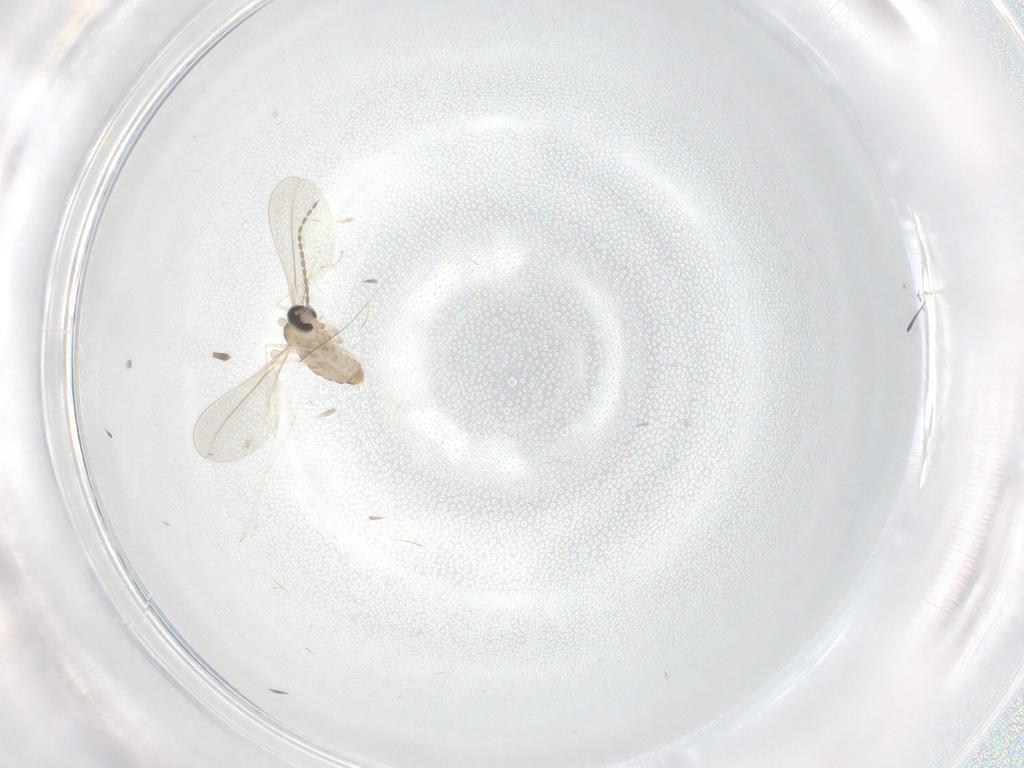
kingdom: Animalia
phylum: Arthropoda
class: Insecta
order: Diptera
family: Cecidomyiidae
